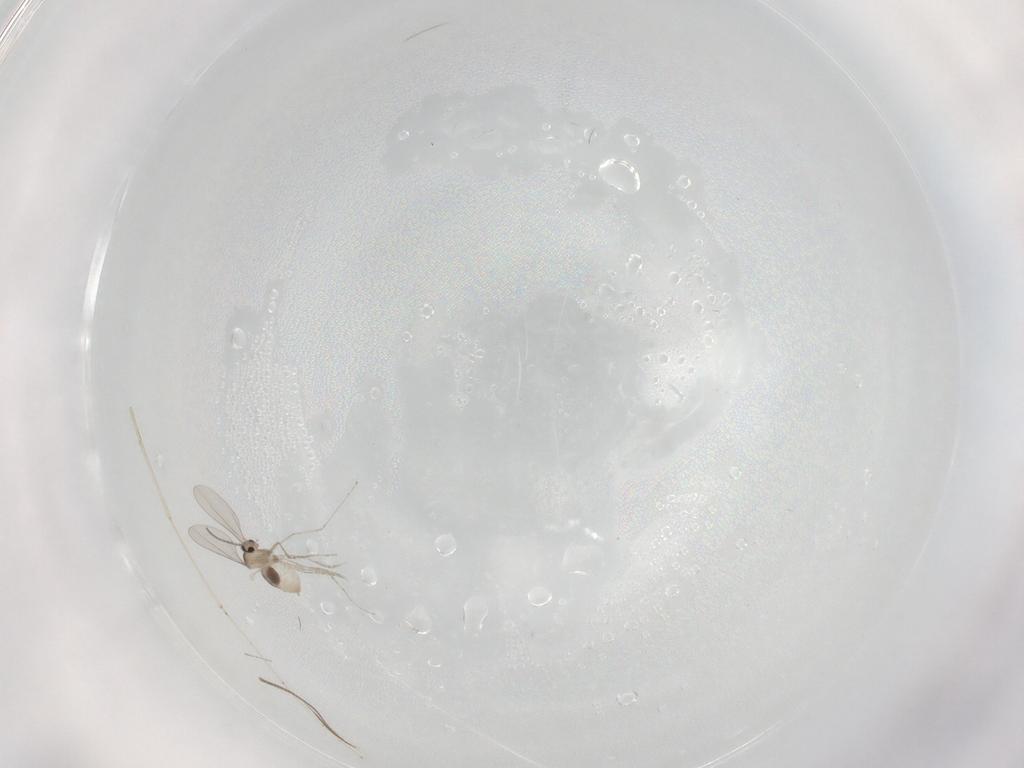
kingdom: Animalia
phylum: Arthropoda
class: Insecta
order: Diptera
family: Cecidomyiidae
